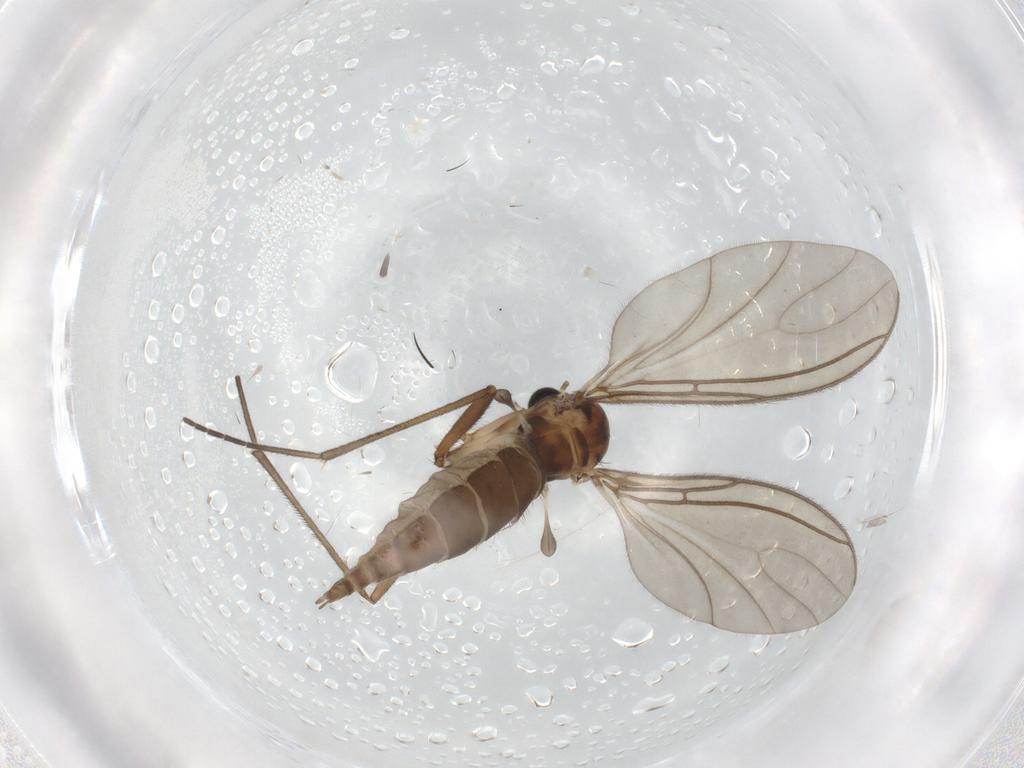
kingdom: Animalia
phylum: Arthropoda
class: Insecta
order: Diptera
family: Sciaridae
